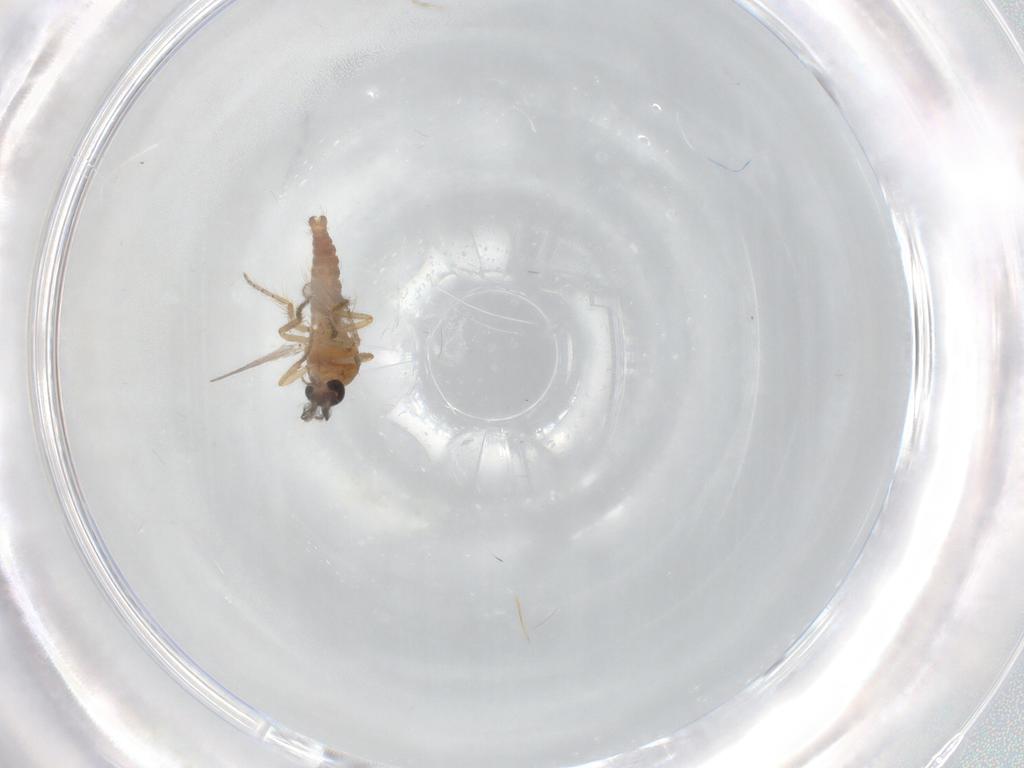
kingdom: Animalia
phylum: Arthropoda
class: Insecta
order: Diptera
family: Ceratopogonidae
